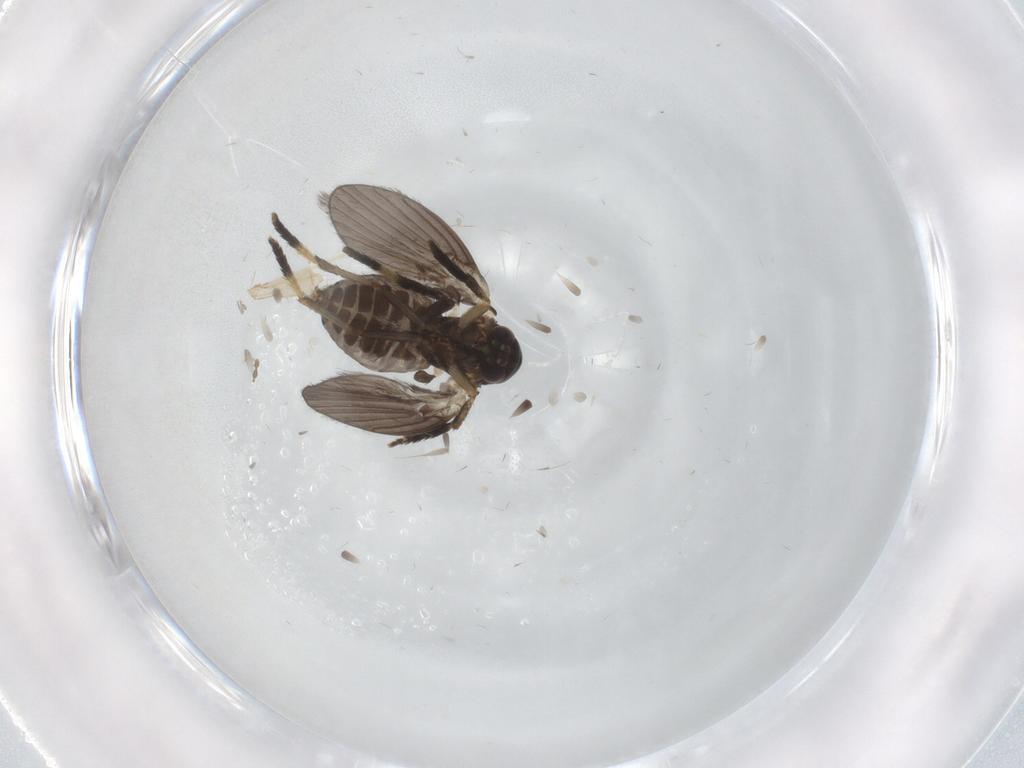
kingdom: Animalia
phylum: Arthropoda
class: Insecta
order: Diptera
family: Psychodidae
